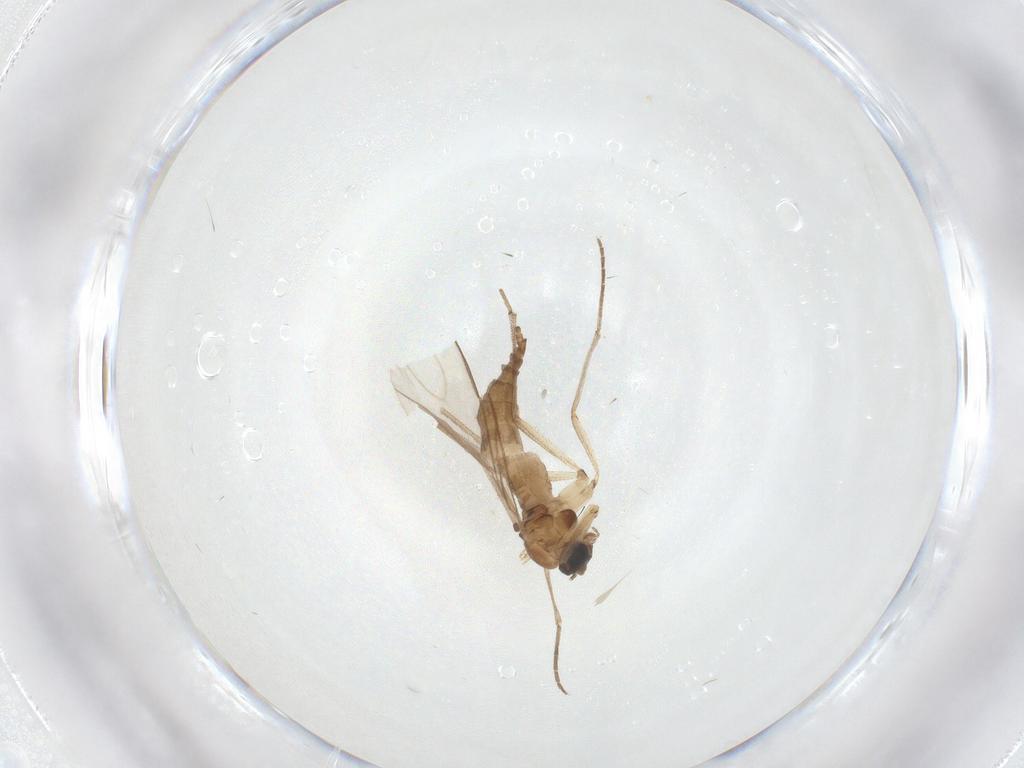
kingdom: Animalia
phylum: Arthropoda
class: Insecta
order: Diptera
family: Sciaridae
